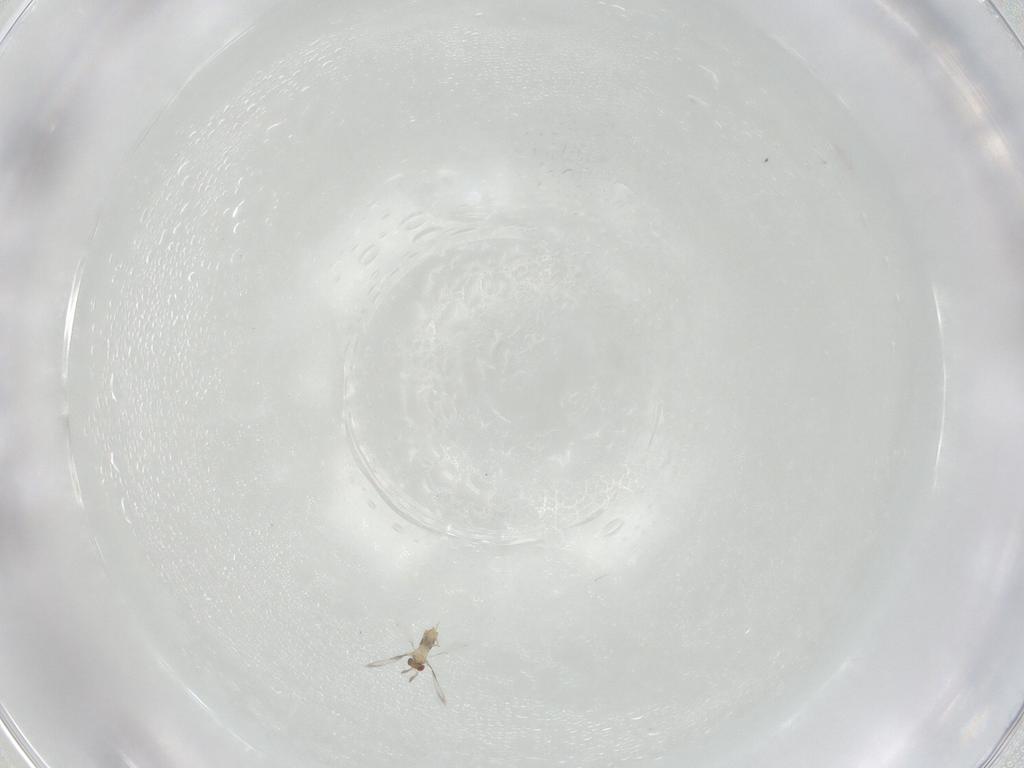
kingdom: Animalia
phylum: Arthropoda
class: Insecta
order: Hymenoptera
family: Trichogrammatidae
